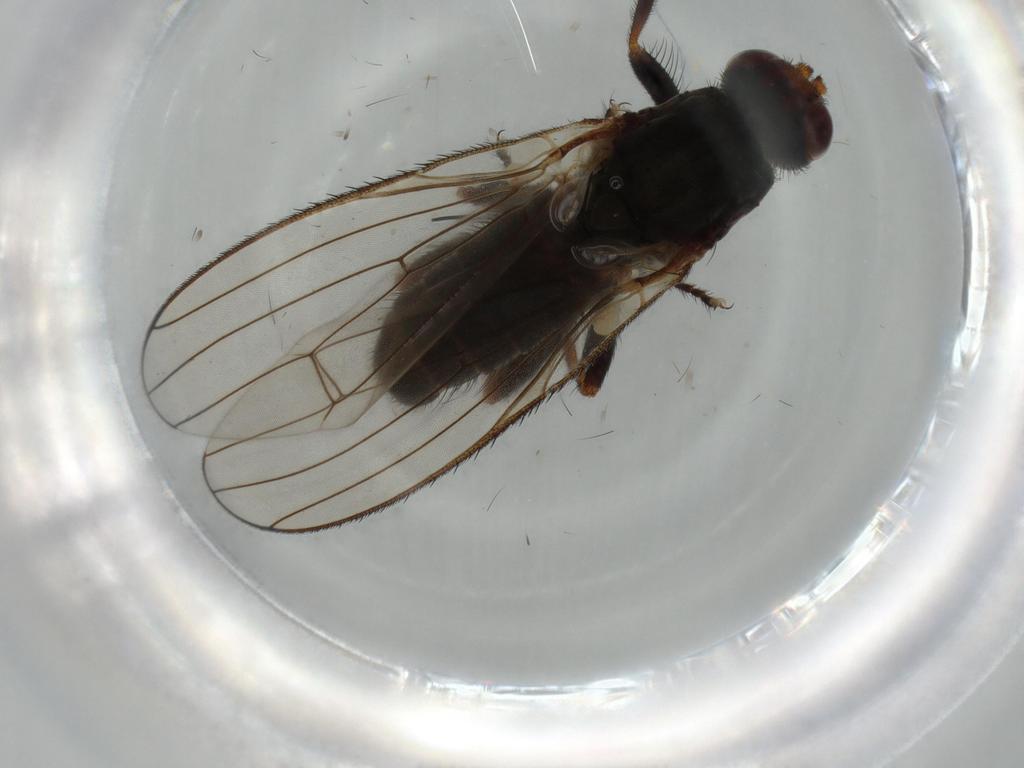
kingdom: Animalia
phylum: Arthropoda
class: Insecta
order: Diptera
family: Heleomyzidae
